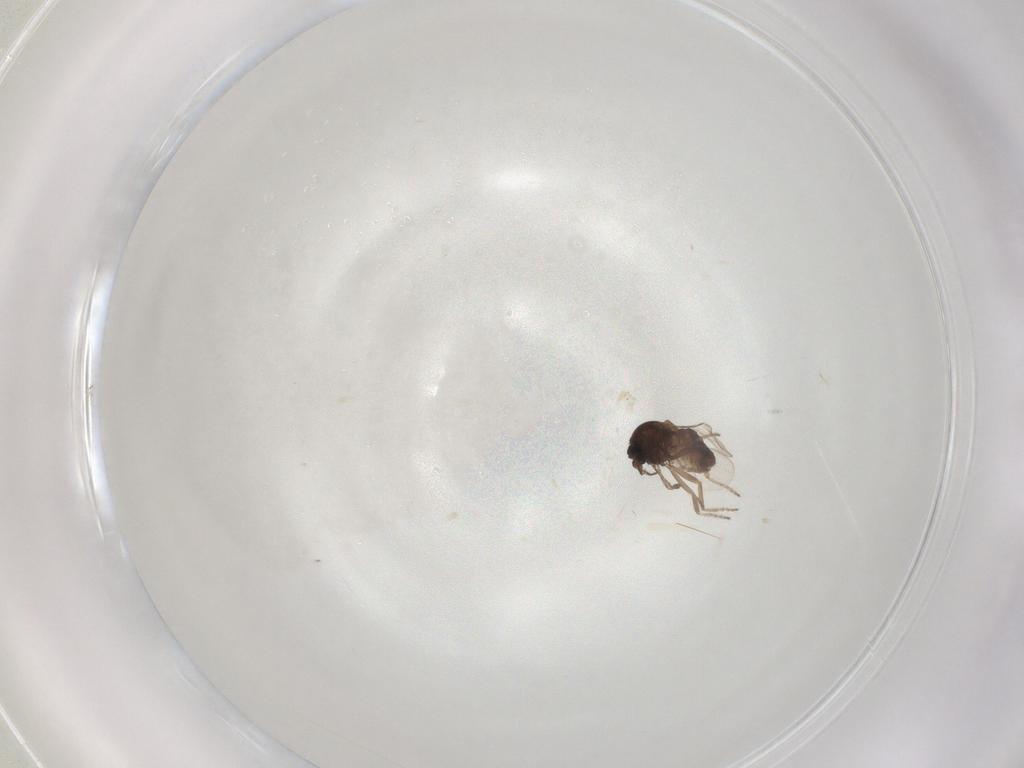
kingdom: Animalia
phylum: Arthropoda
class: Insecta
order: Diptera
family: Ceratopogonidae
